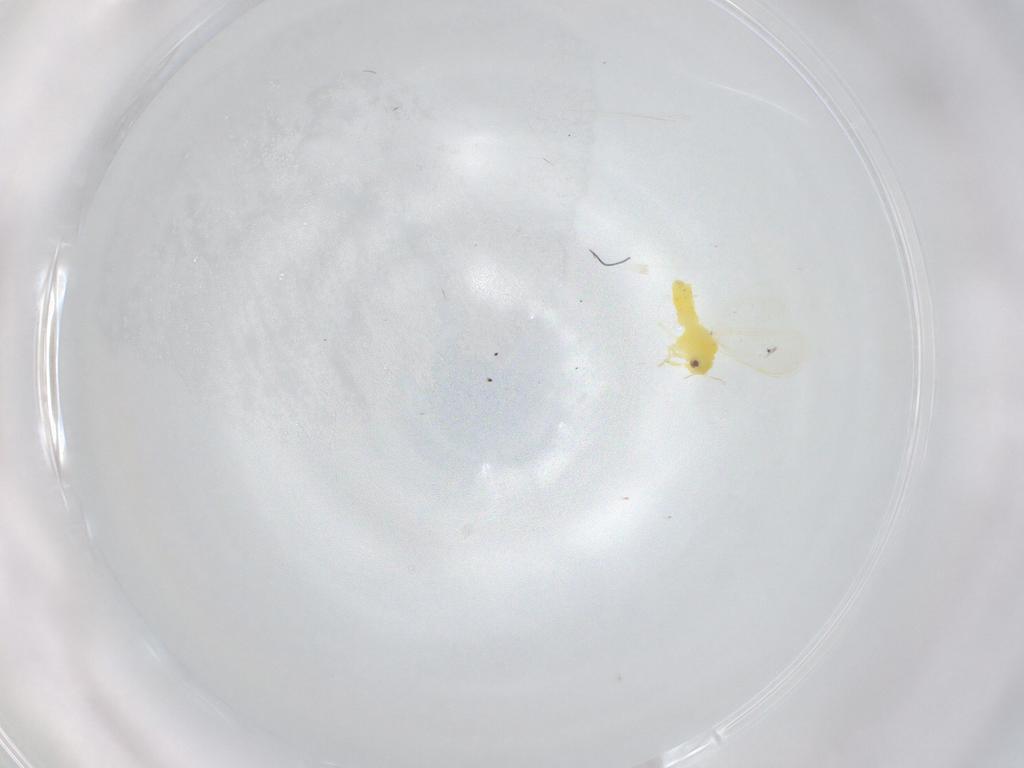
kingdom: Animalia
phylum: Arthropoda
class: Insecta
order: Hemiptera
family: Aleyrodidae
